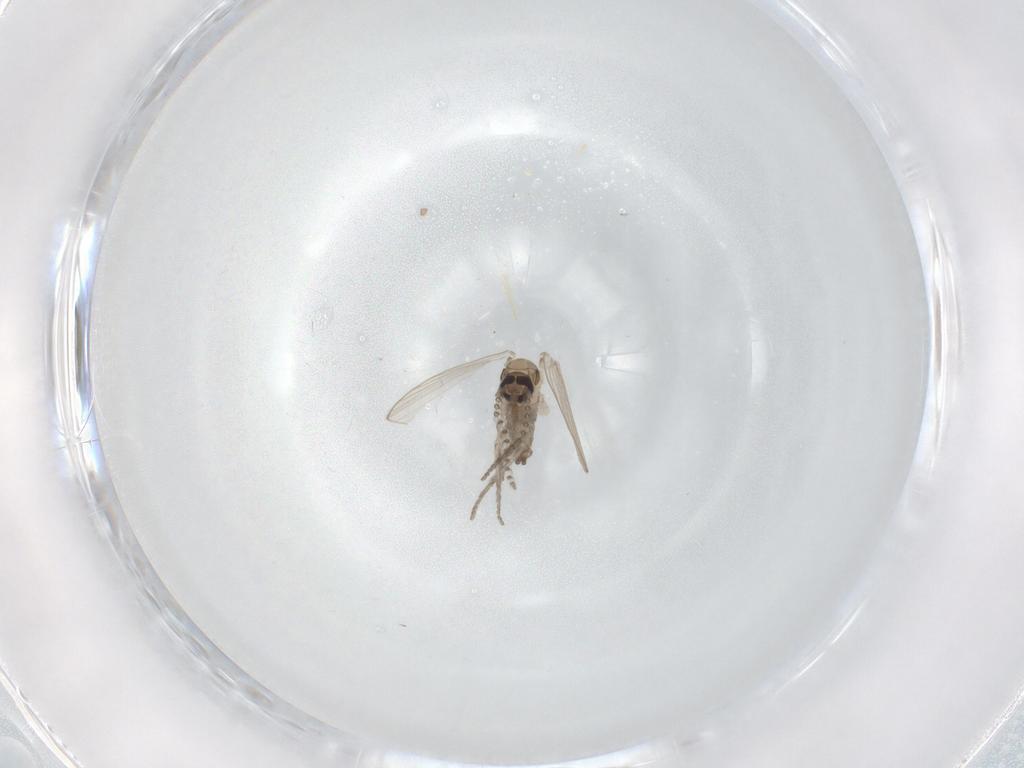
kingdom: Animalia
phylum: Arthropoda
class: Insecta
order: Diptera
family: Psychodidae
